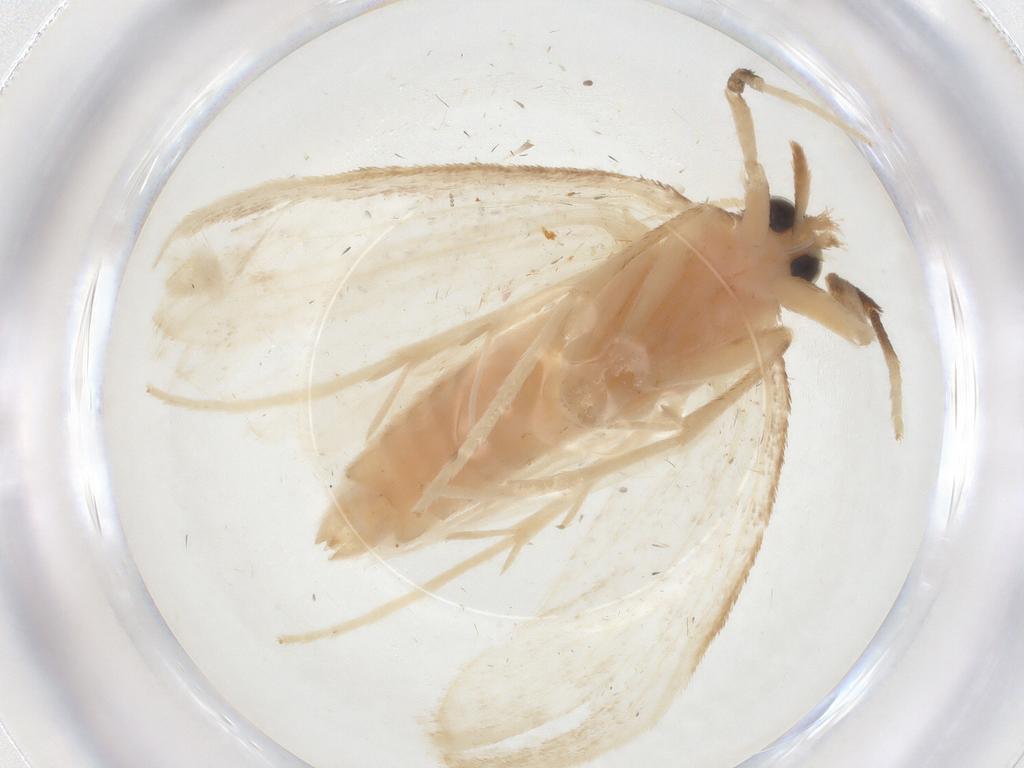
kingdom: Animalia
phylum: Arthropoda
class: Insecta
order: Lepidoptera
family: Crambidae
